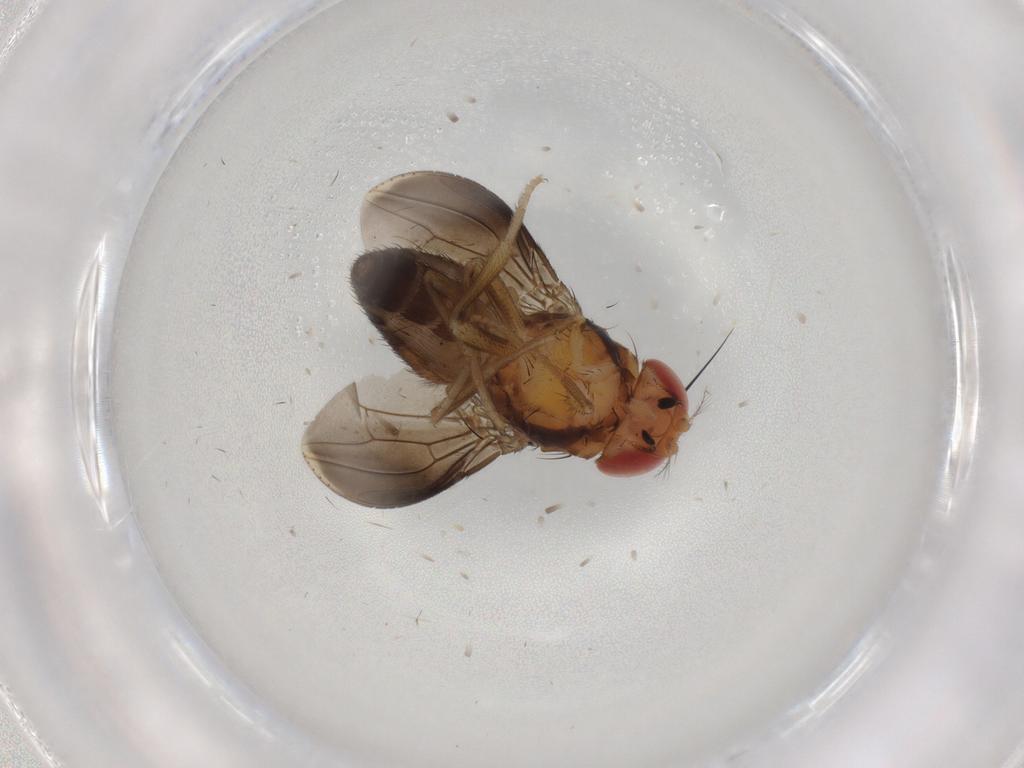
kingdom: Animalia
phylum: Arthropoda
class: Insecta
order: Diptera
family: Drosophilidae
